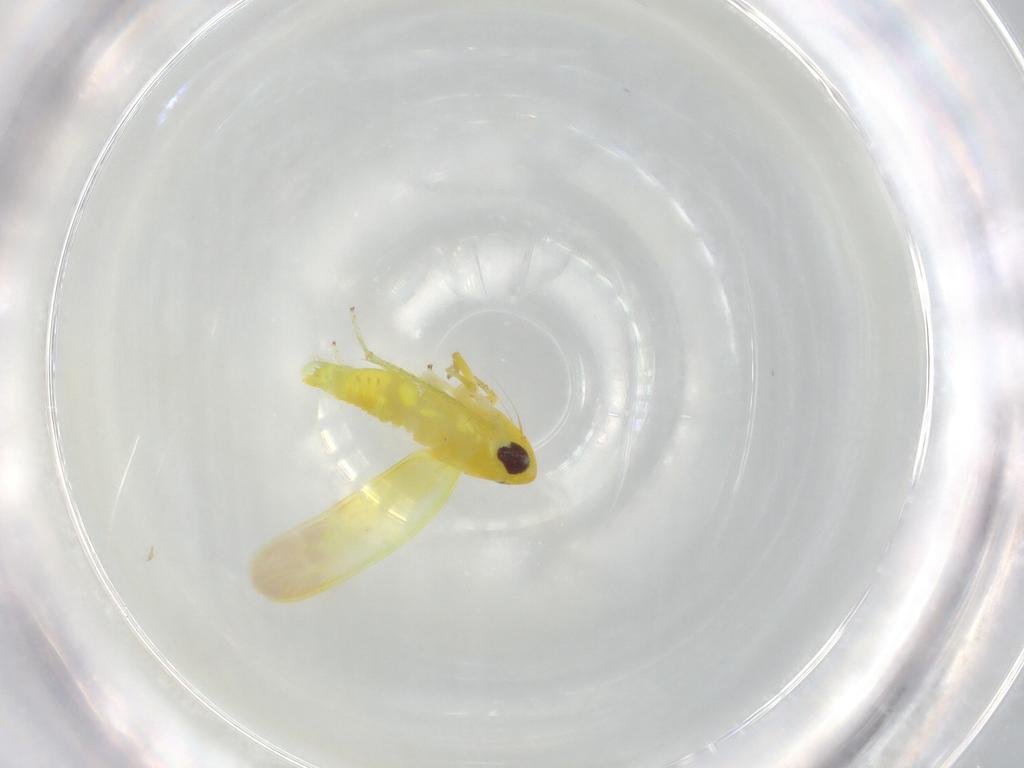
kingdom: Animalia
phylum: Arthropoda
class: Insecta
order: Hemiptera
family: Cicadellidae
